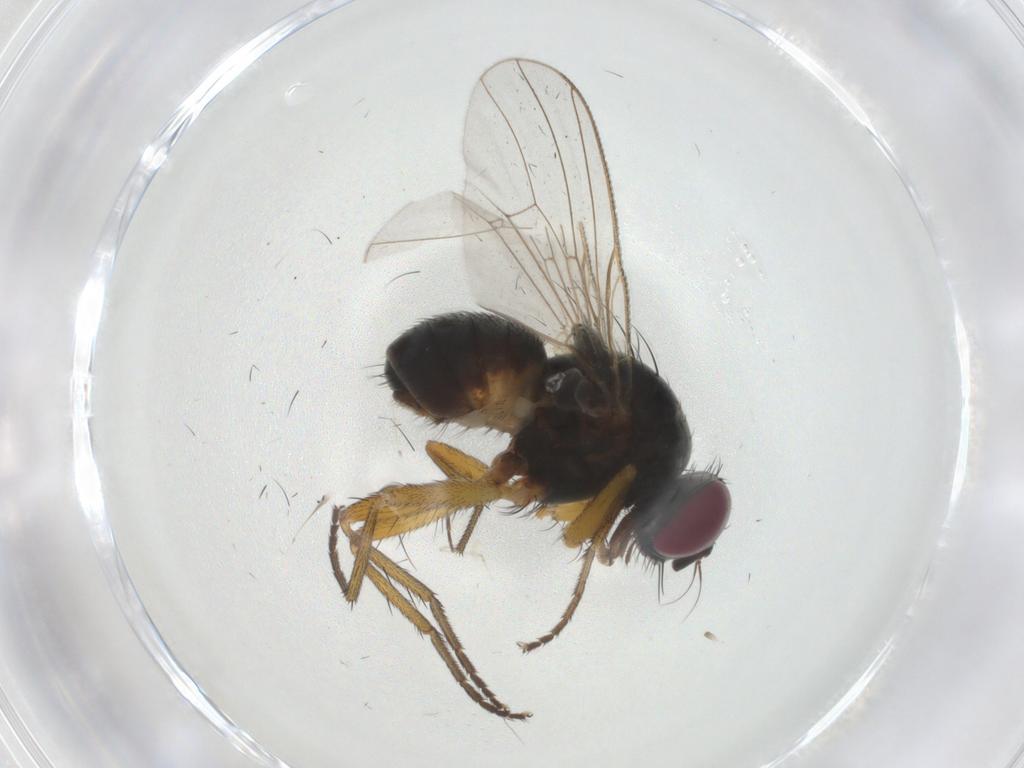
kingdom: Animalia
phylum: Arthropoda
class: Insecta
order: Diptera
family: Muscidae
